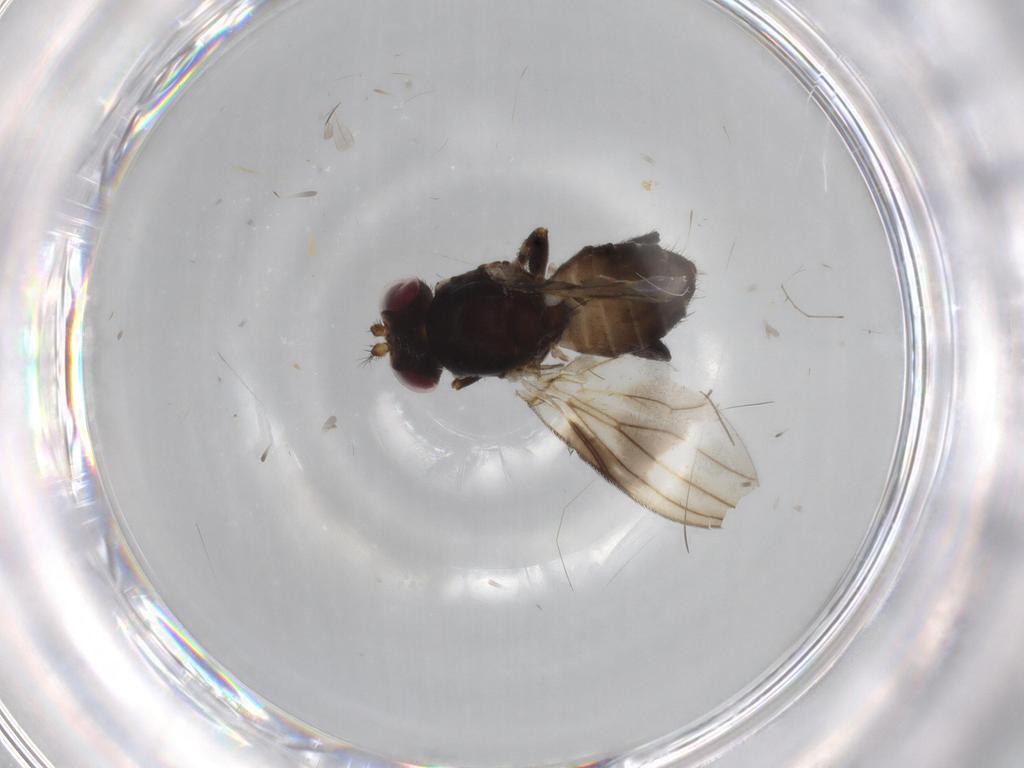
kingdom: Animalia
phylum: Arthropoda
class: Insecta
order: Diptera
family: Periscelididae
